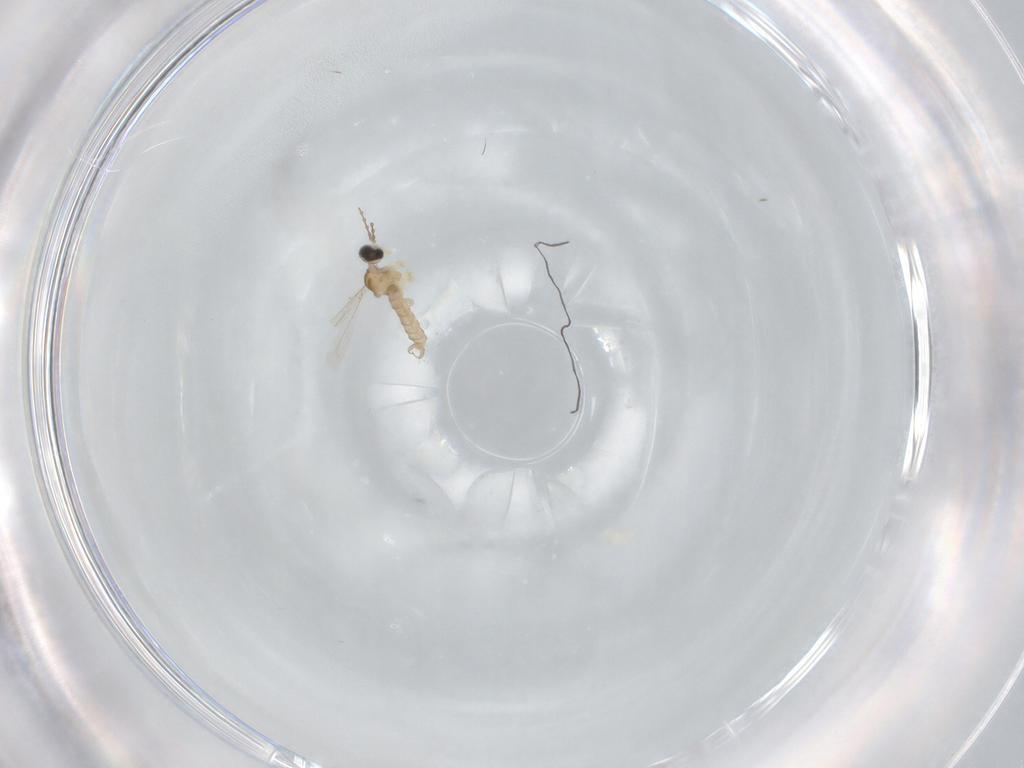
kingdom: Animalia
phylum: Arthropoda
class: Insecta
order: Diptera
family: Ceratopogonidae
